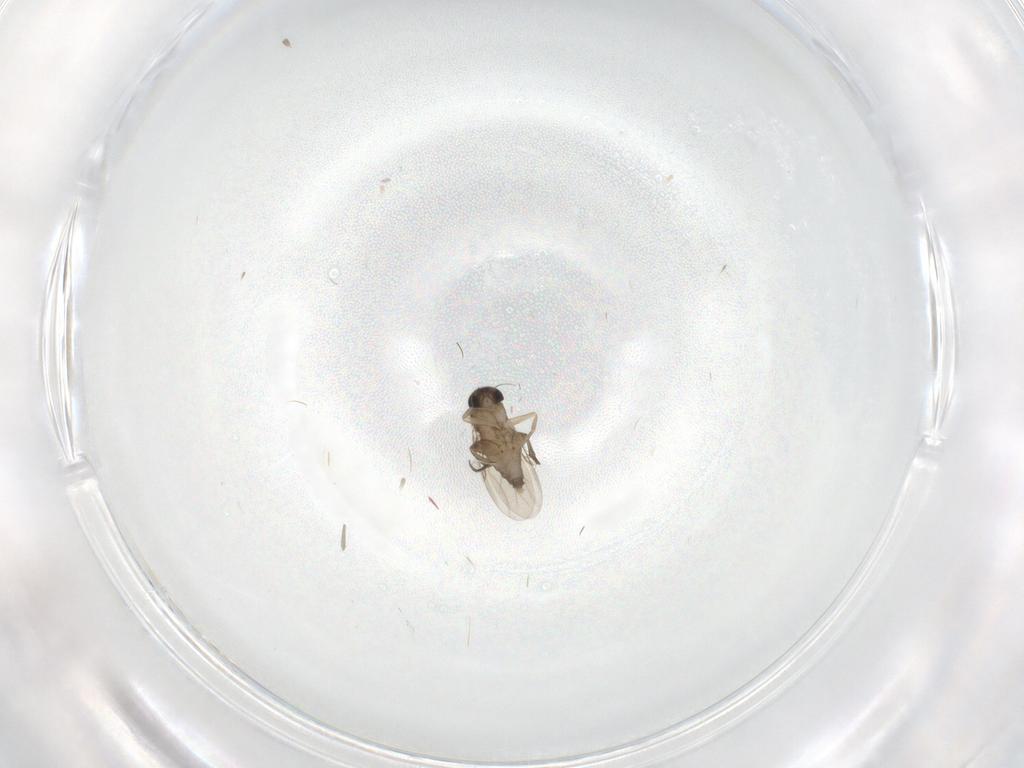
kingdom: Animalia
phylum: Arthropoda
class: Insecta
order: Diptera
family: Phoridae
